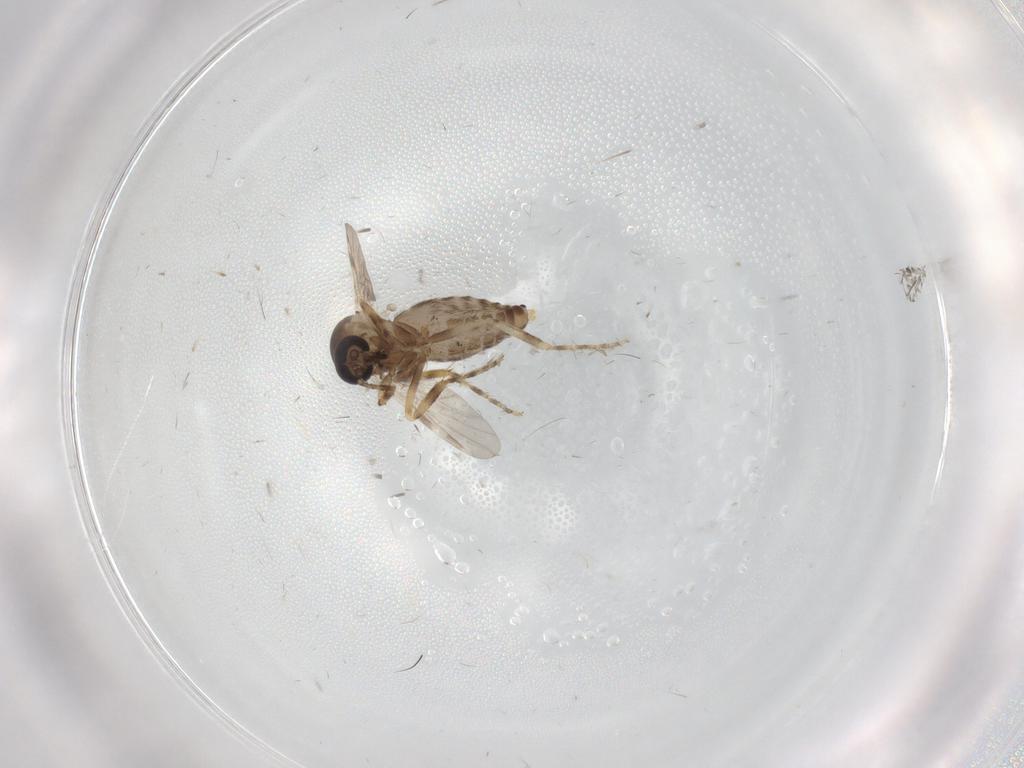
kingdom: Animalia
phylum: Arthropoda
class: Insecta
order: Diptera
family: Ceratopogonidae
